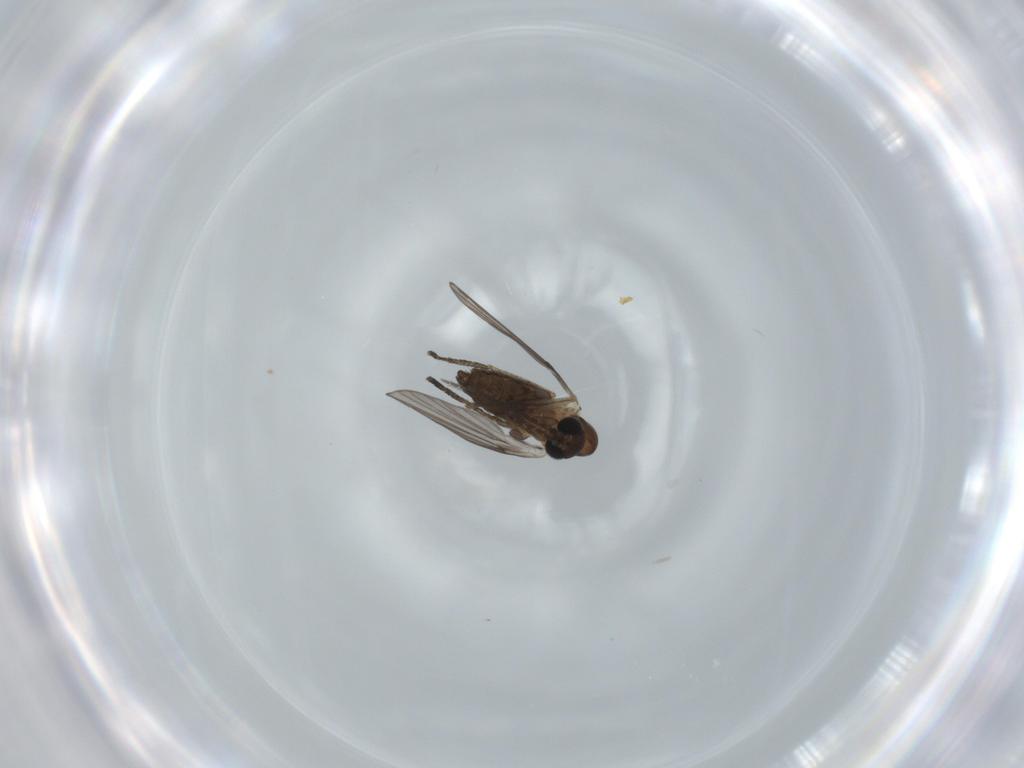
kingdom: Animalia
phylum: Arthropoda
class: Insecta
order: Diptera
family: Psychodidae
